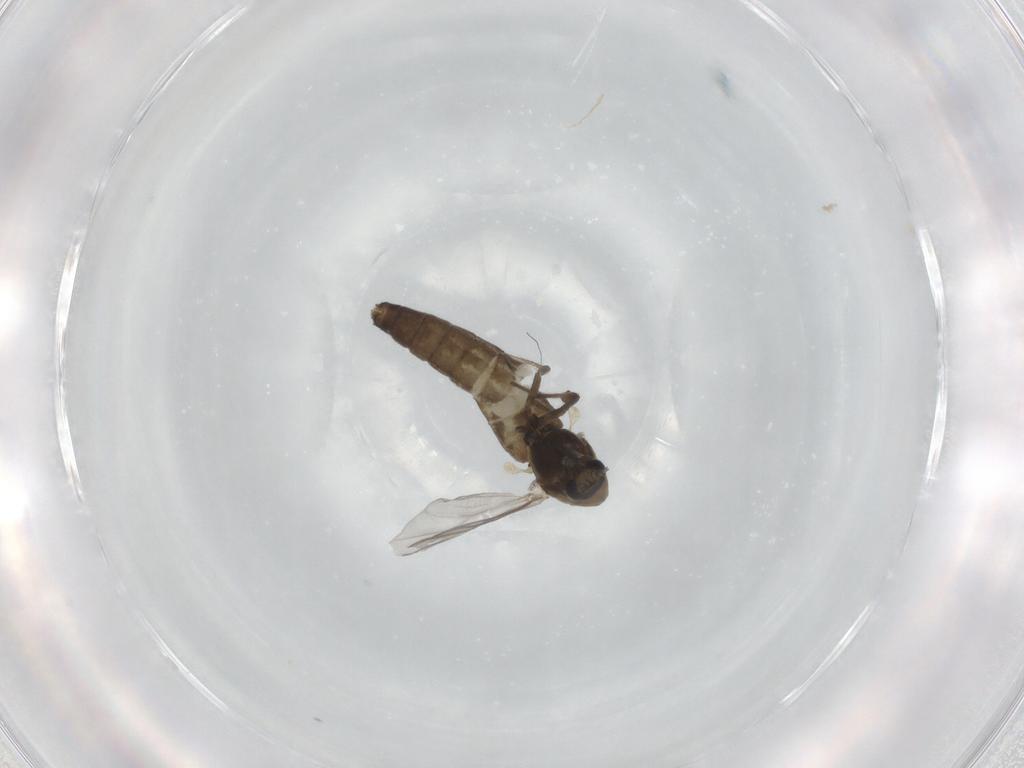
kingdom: Animalia
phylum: Arthropoda
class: Insecta
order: Diptera
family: Chironomidae
